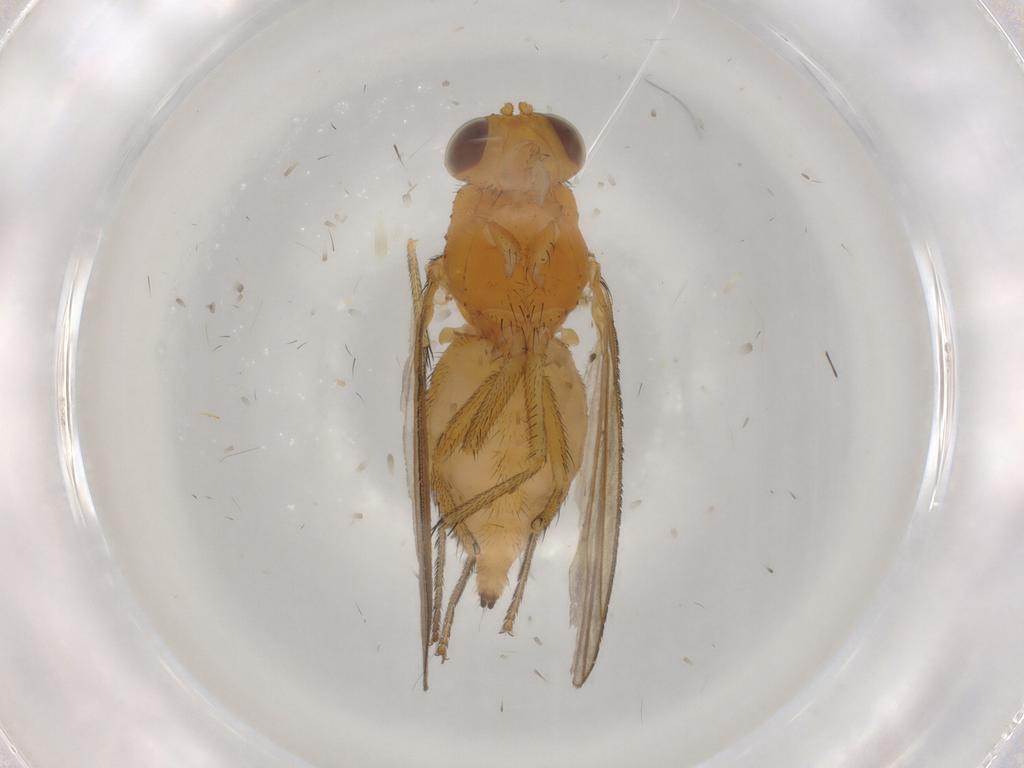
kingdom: Animalia
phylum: Arthropoda
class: Insecta
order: Diptera
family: Sciaridae
